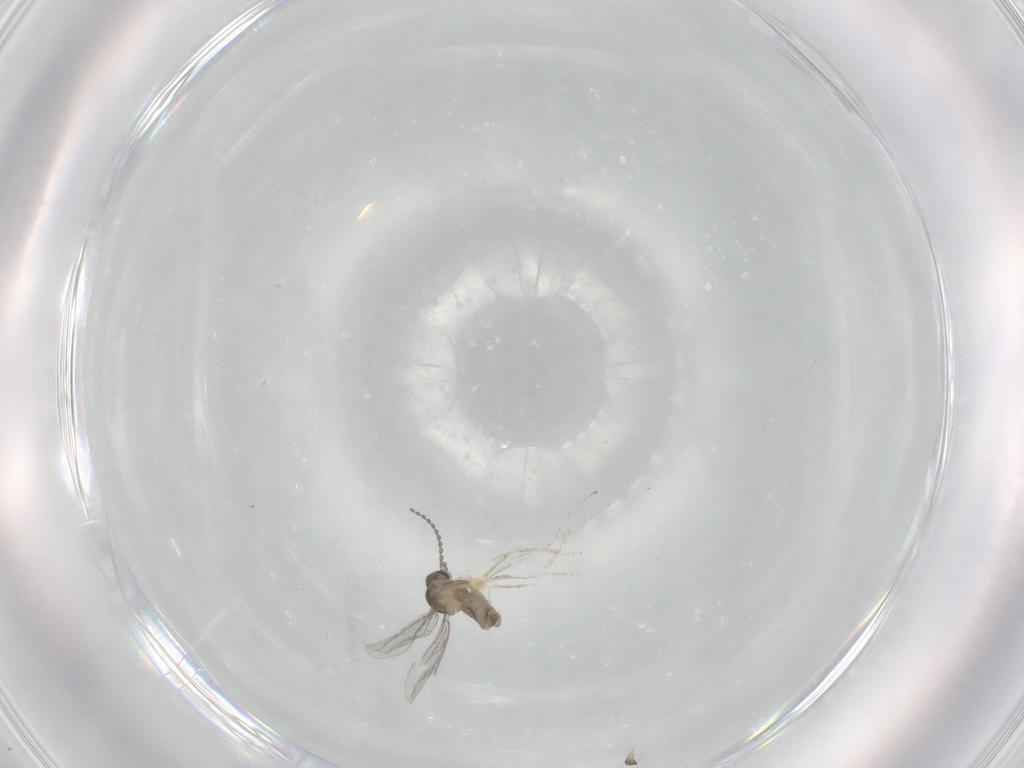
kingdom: Animalia
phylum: Arthropoda
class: Insecta
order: Diptera
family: Cecidomyiidae
